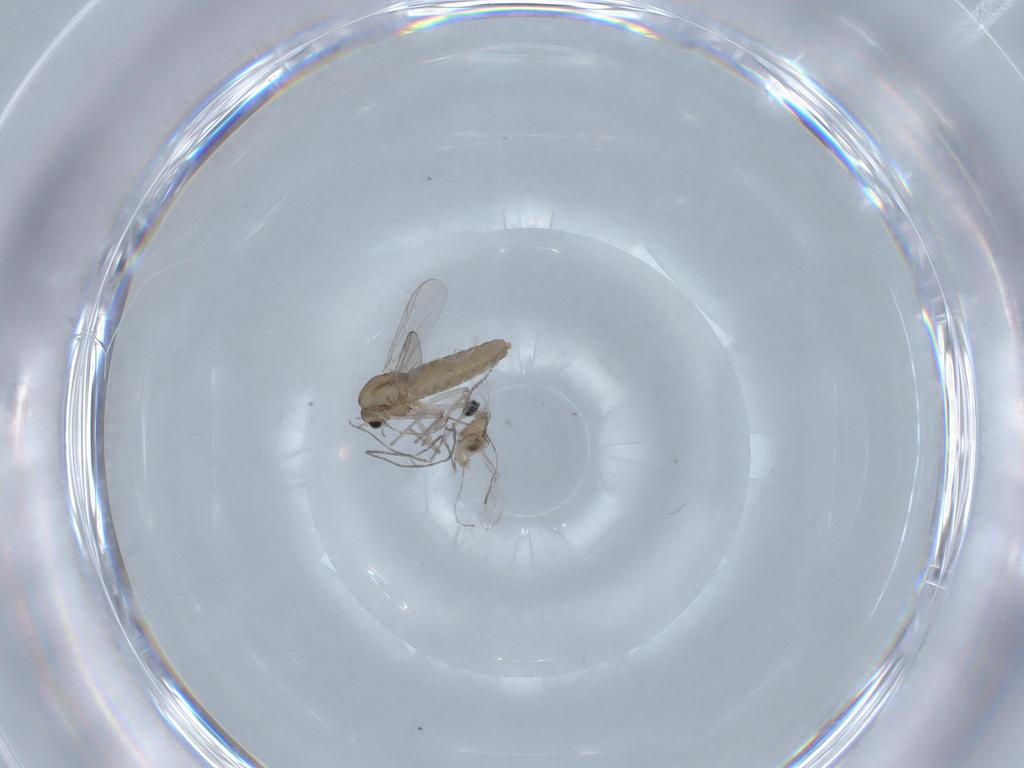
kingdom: Animalia
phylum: Arthropoda
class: Insecta
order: Diptera
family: Chironomidae
